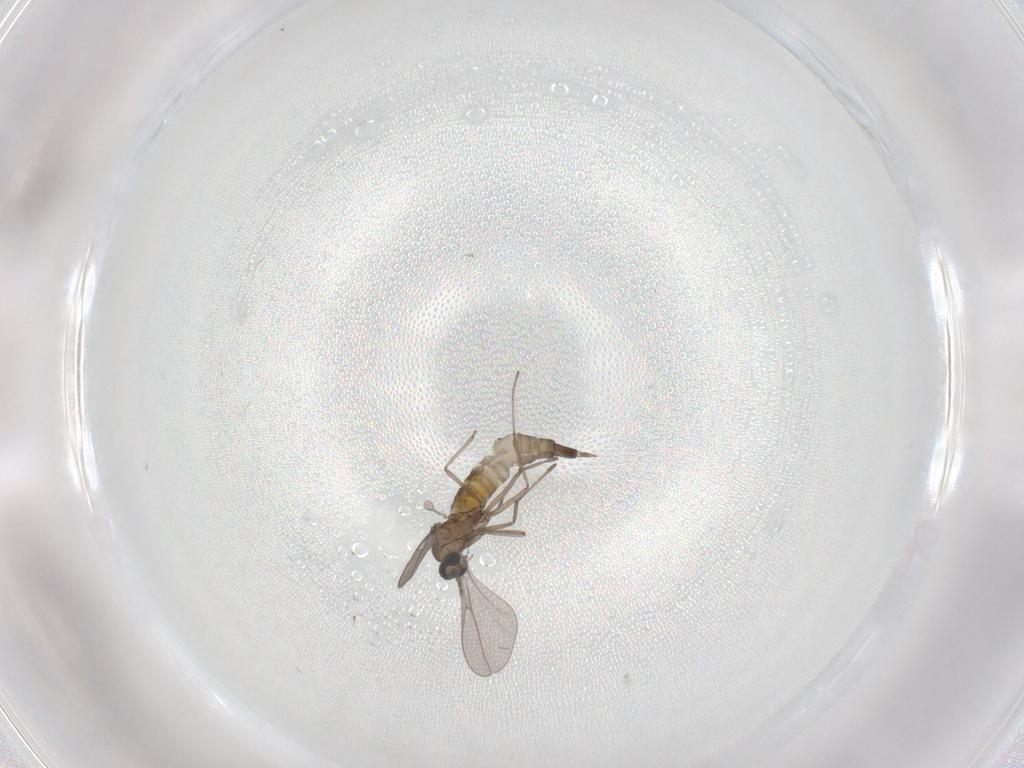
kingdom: Animalia
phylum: Arthropoda
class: Insecta
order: Diptera
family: Cecidomyiidae
